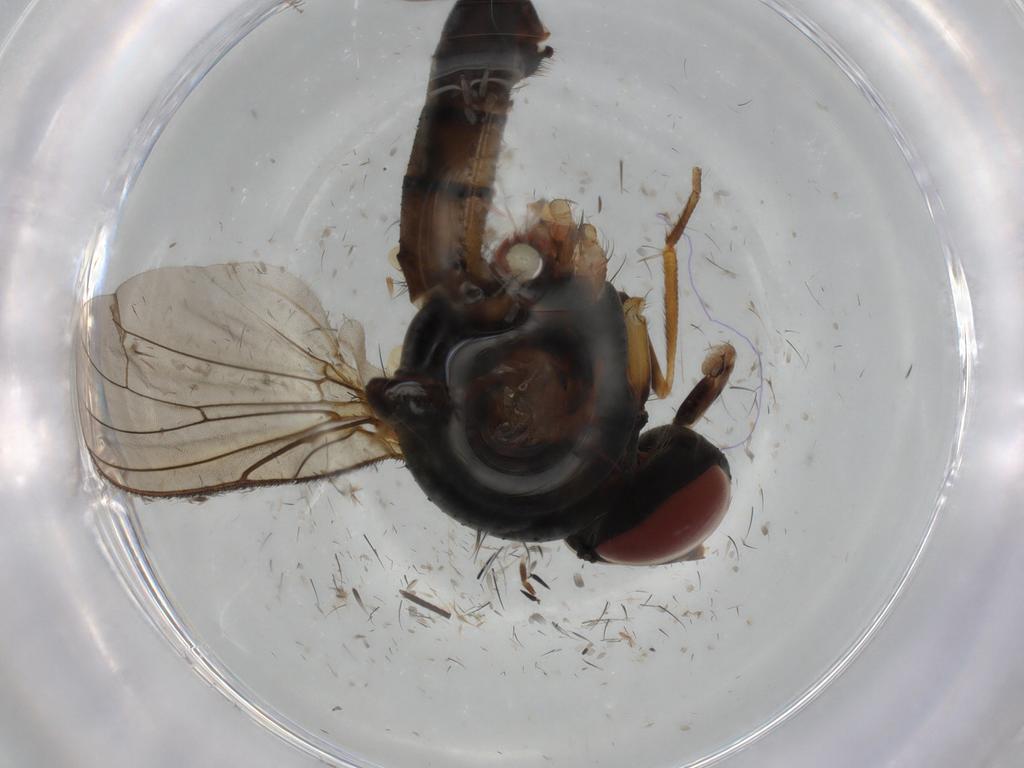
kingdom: Animalia
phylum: Arthropoda
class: Insecta
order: Diptera
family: Anthomyiidae
